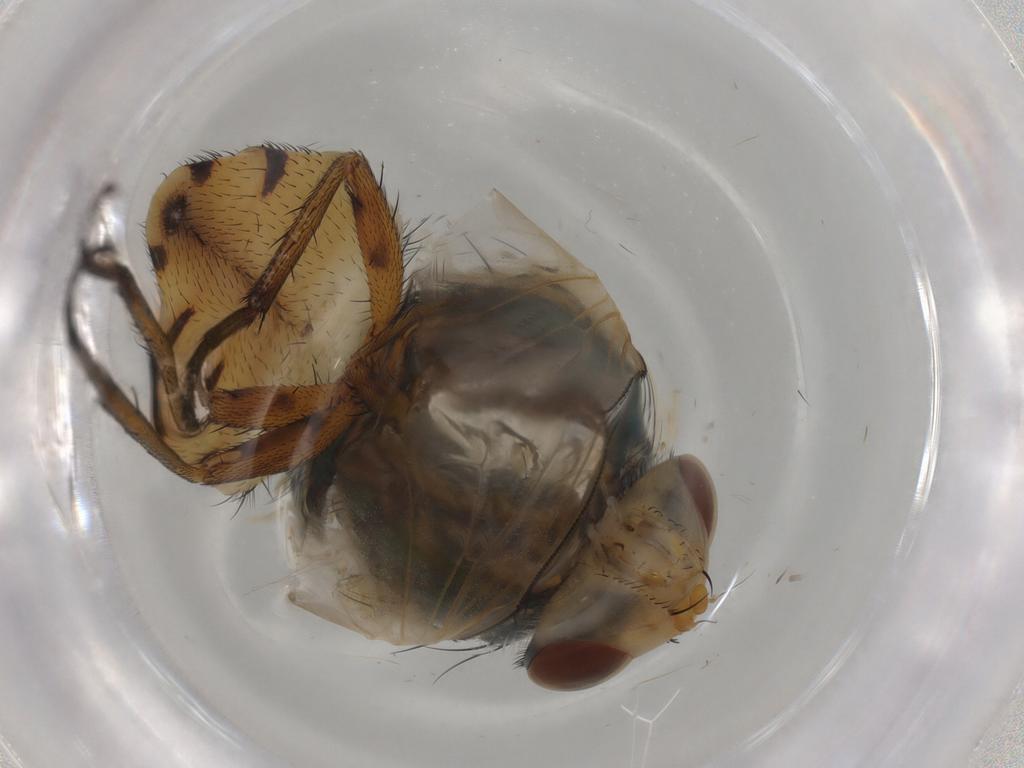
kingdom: Animalia
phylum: Arthropoda
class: Insecta
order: Diptera
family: Calliphoridae
